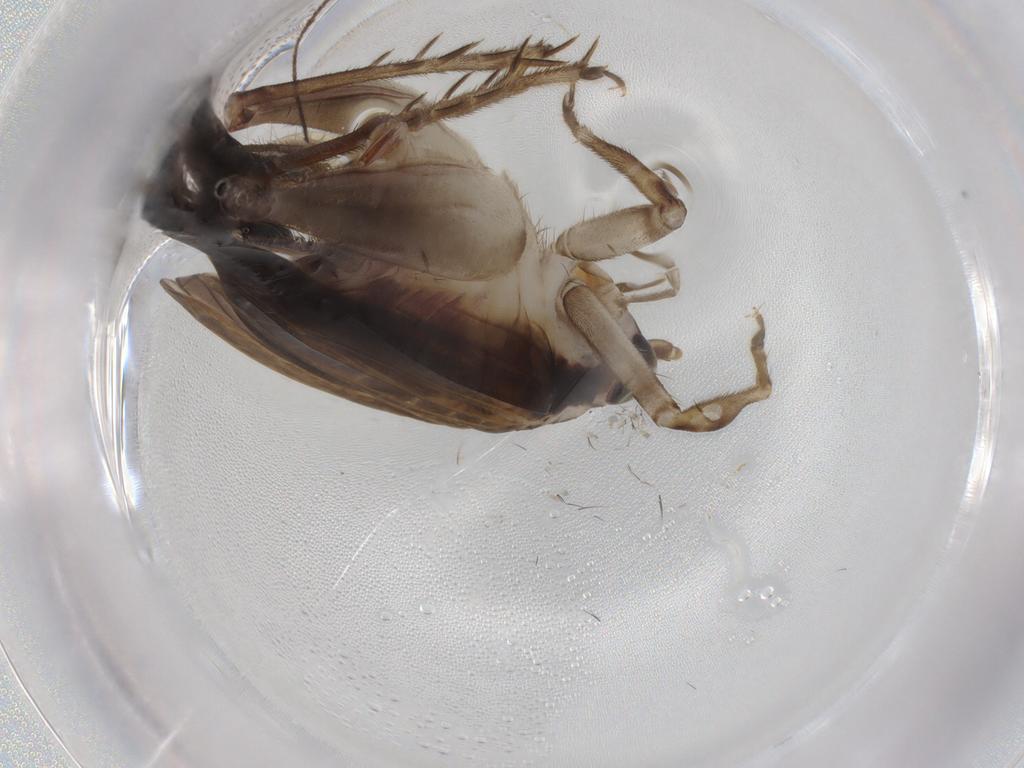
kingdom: Animalia
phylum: Arthropoda
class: Insecta
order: Orthoptera
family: Trigonidiidae
